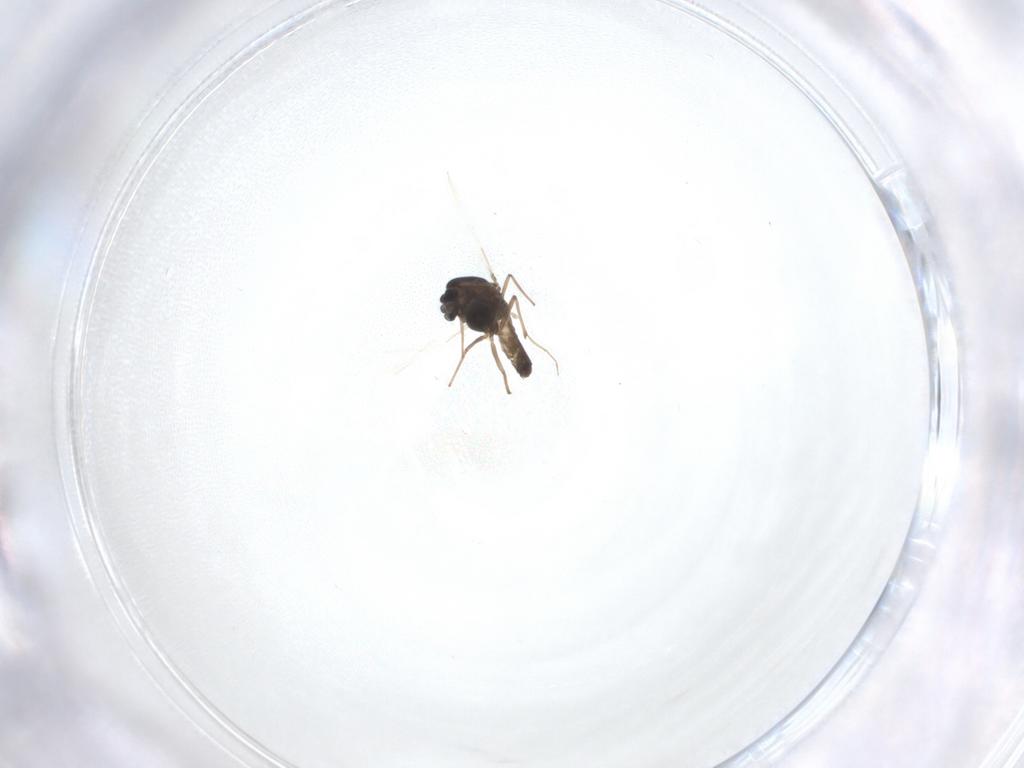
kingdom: Animalia
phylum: Arthropoda
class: Insecta
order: Diptera
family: Chironomidae
